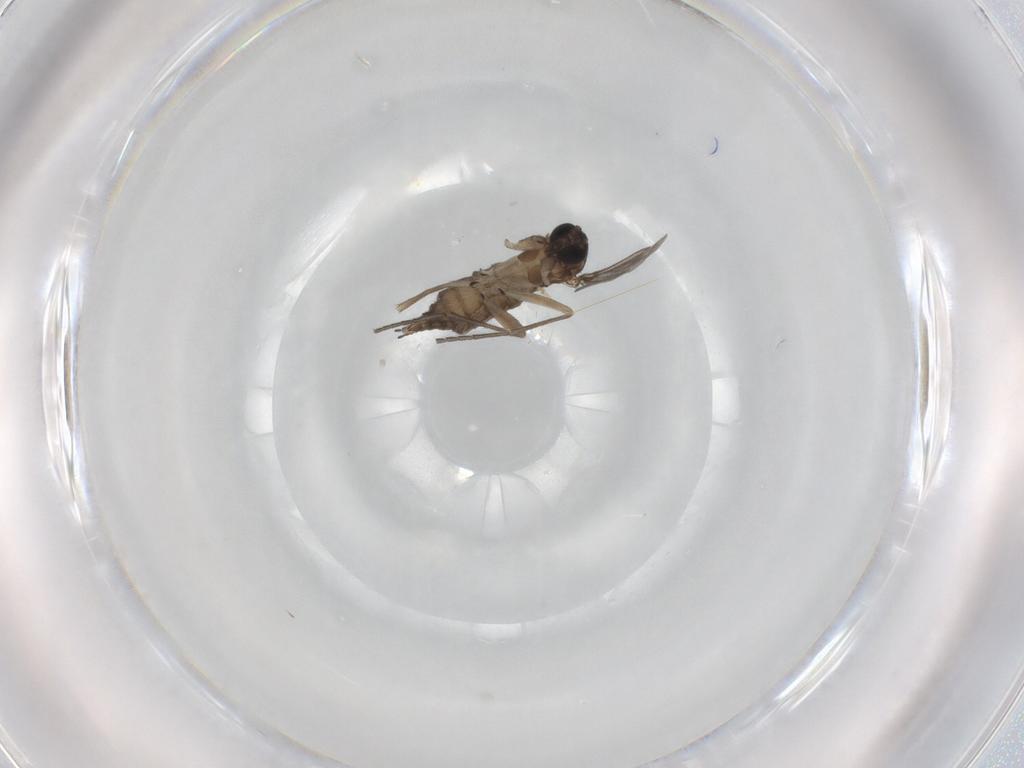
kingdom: Animalia
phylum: Arthropoda
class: Insecta
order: Diptera
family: Sciaridae
